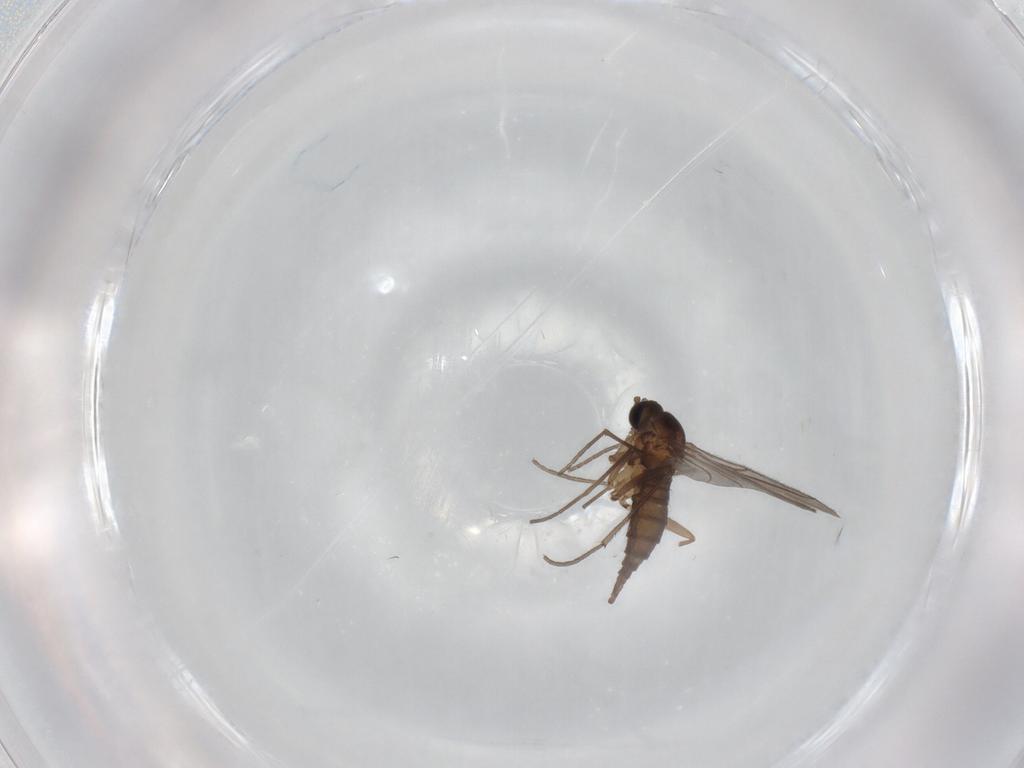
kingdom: Animalia
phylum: Arthropoda
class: Insecta
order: Diptera
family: Sciaridae
